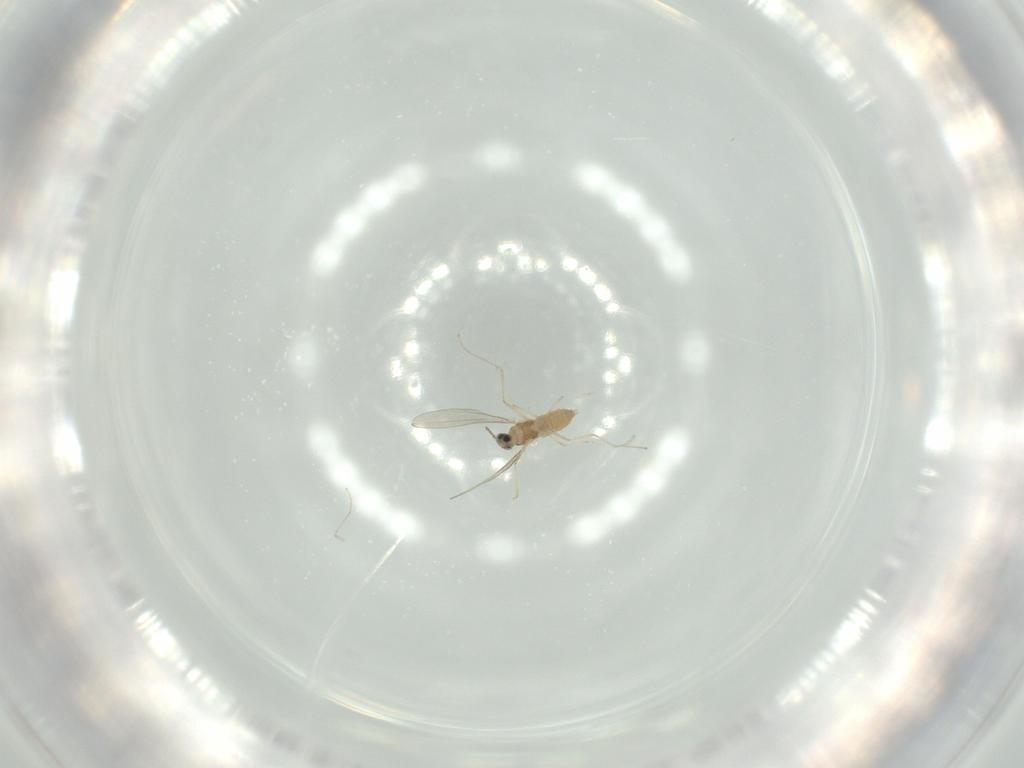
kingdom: Animalia
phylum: Arthropoda
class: Insecta
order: Diptera
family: Cecidomyiidae
